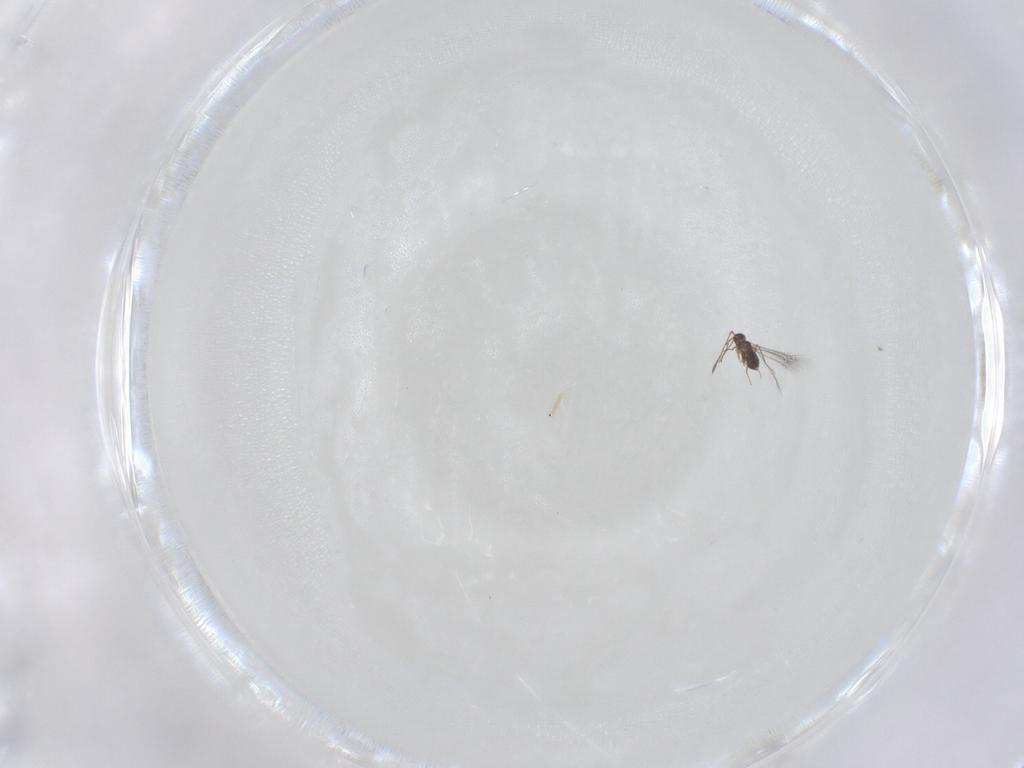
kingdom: Animalia
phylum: Arthropoda
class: Insecta
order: Hymenoptera
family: Mymaridae
